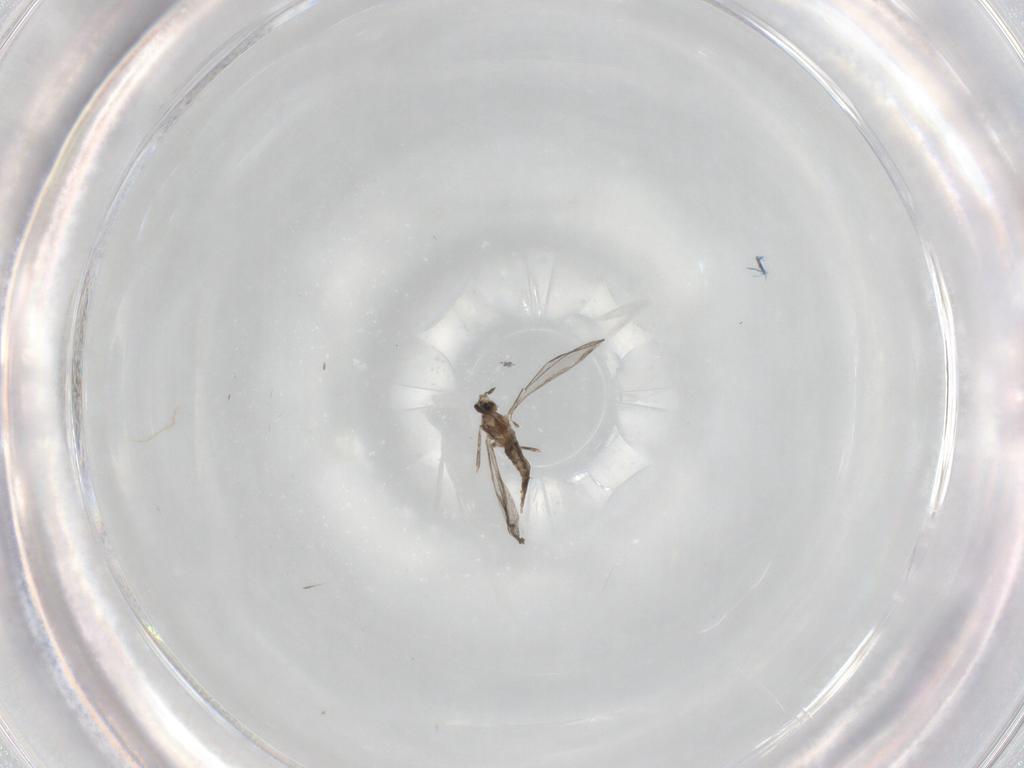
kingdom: Animalia
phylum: Arthropoda
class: Insecta
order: Diptera
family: Cecidomyiidae
